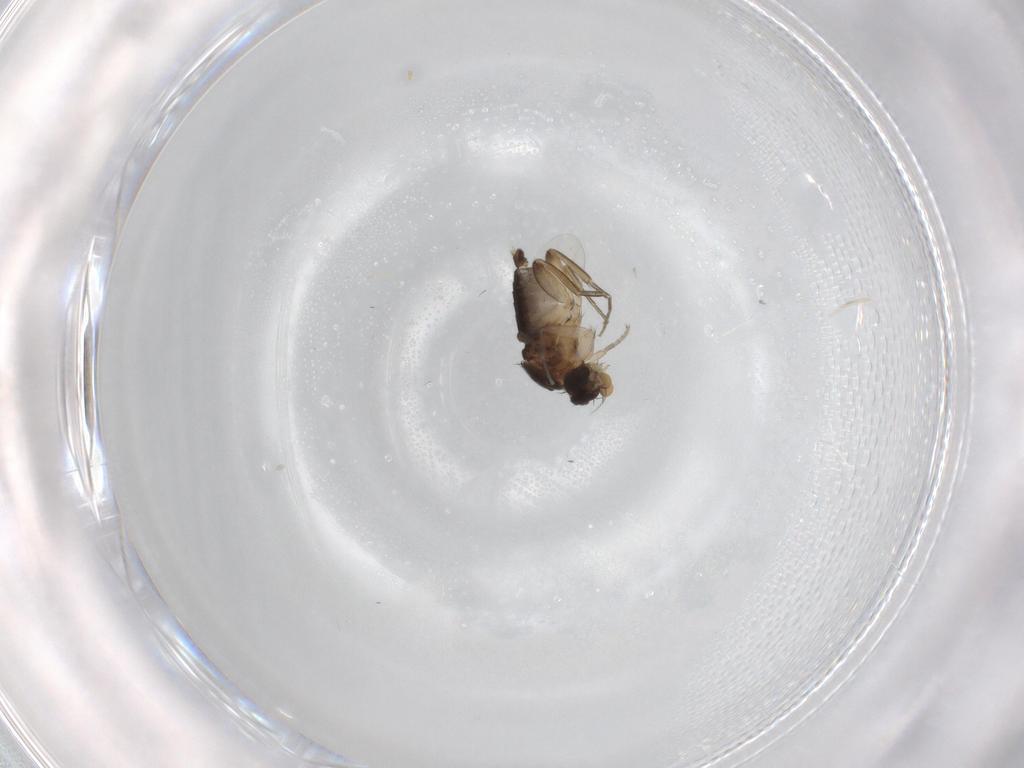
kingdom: Animalia
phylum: Arthropoda
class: Insecta
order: Diptera
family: Phoridae
